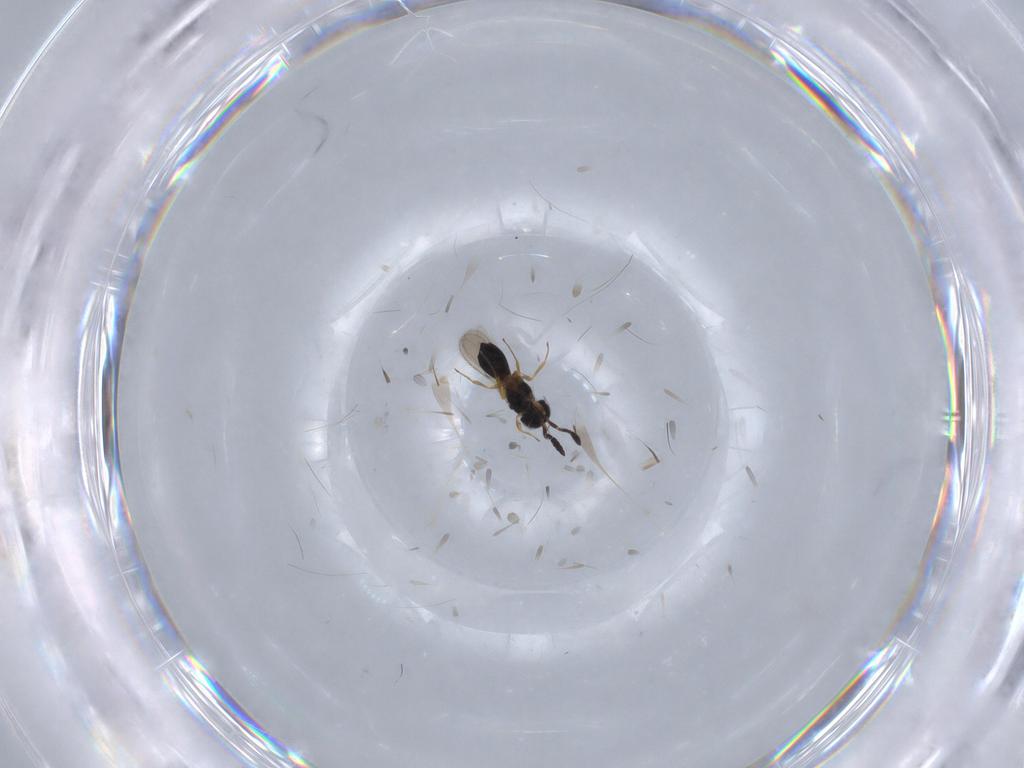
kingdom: Animalia
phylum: Arthropoda
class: Insecta
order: Hymenoptera
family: Scelionidae
